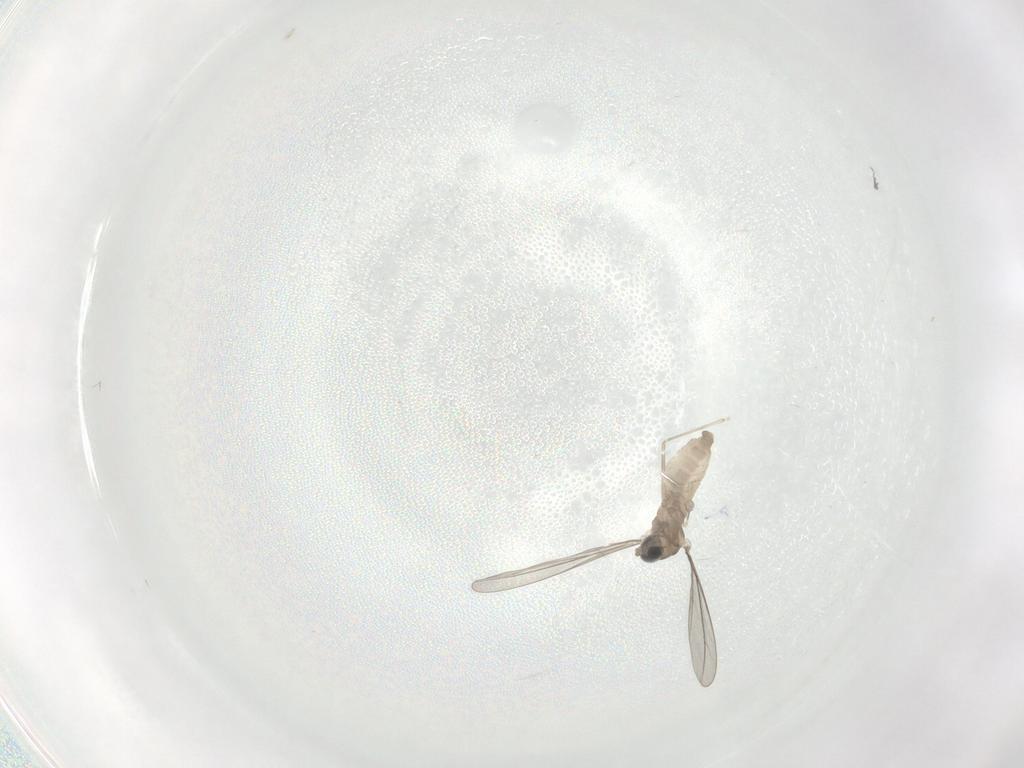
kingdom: Animalia
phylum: Arthropoda
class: Insecta
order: Diptera
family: Cecidomyiidae
